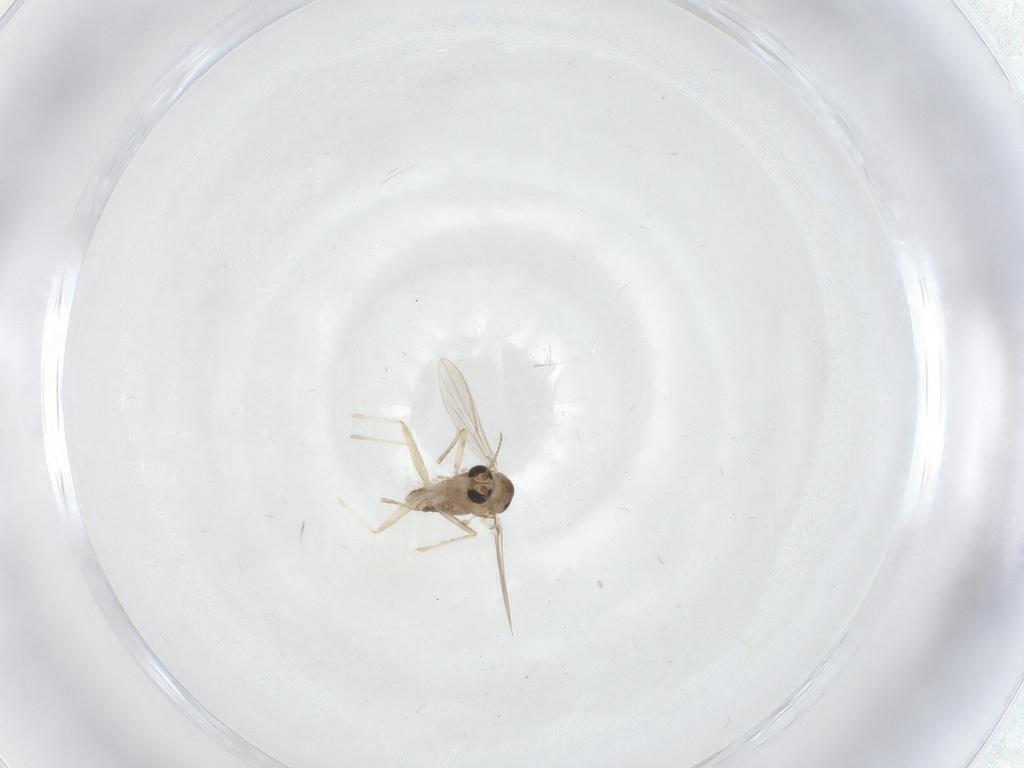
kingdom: Animalia
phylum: Arthropoda
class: Insecta
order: Diptera
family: Chironomidae
